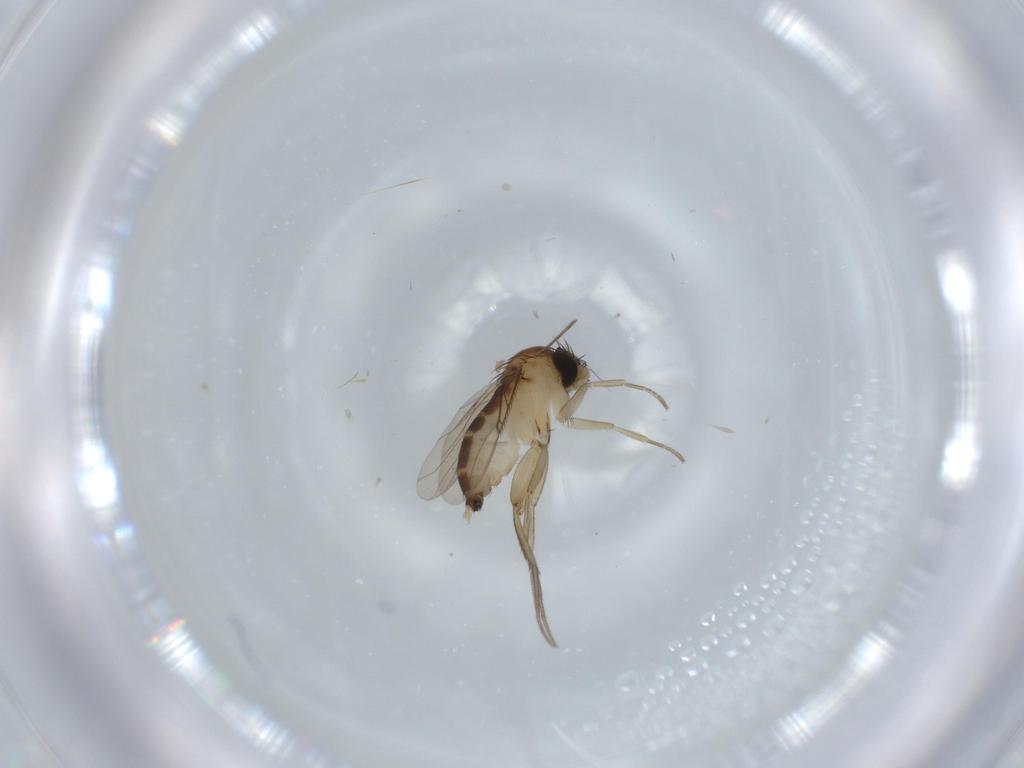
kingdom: Animalia
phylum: Arthropoda
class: Insecta
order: Diptera
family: Phoridae
